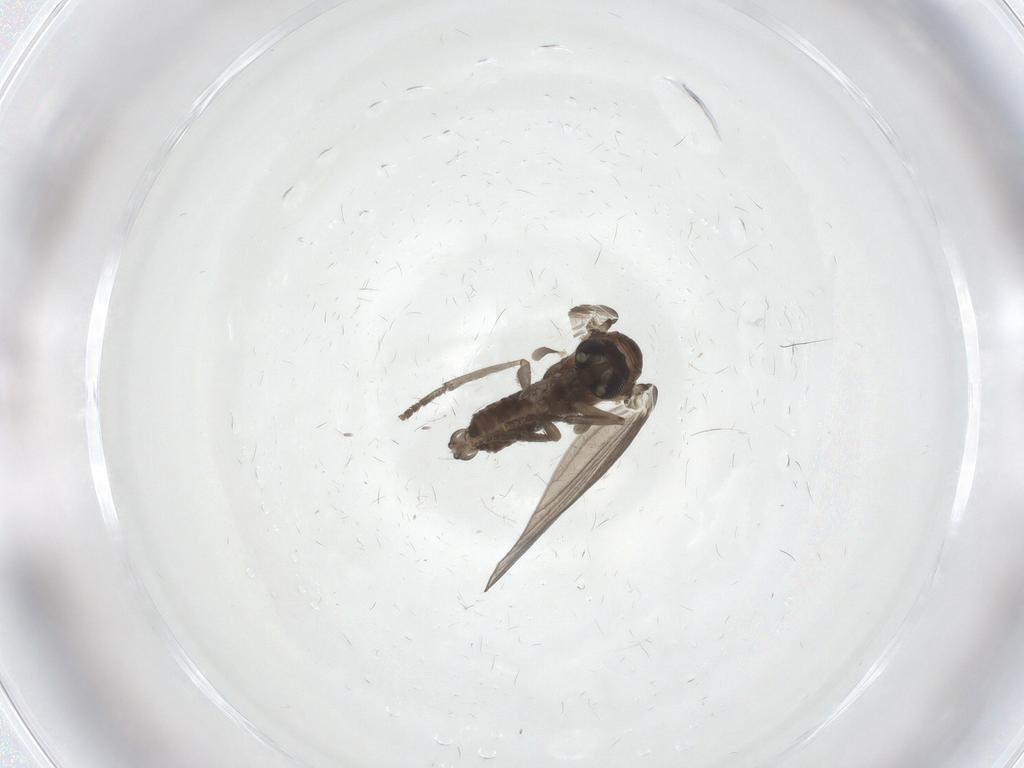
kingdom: Animalia
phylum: Arthropoda
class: Insecta
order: Diptera
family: Psychodidae
